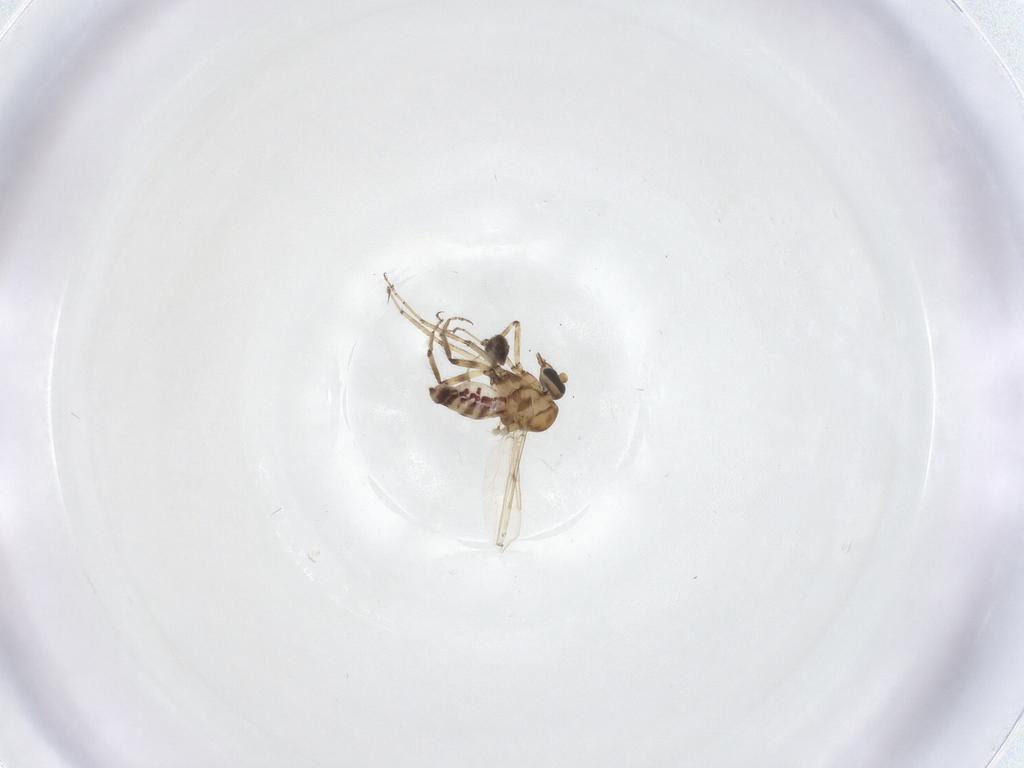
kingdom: Animalia
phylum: Arthropoda
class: Insecta
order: Diptera
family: Ceratopogonidae
